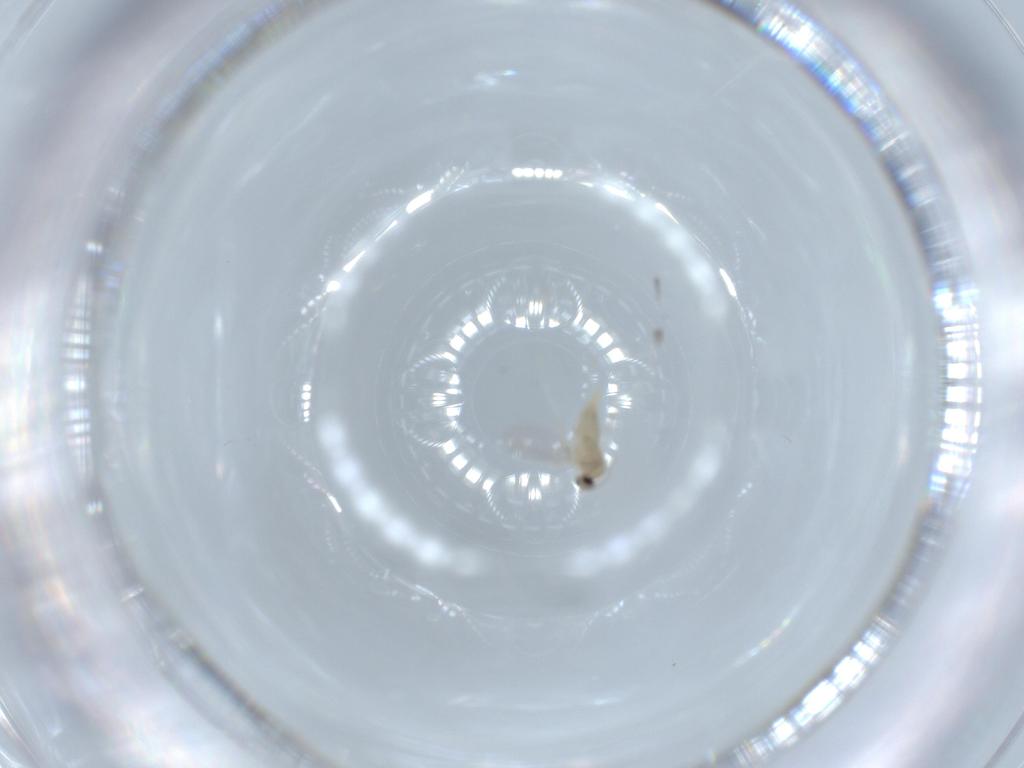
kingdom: Animalia
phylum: Arthropoda
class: Insecta
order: Diptera
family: Cecidomyiidae
